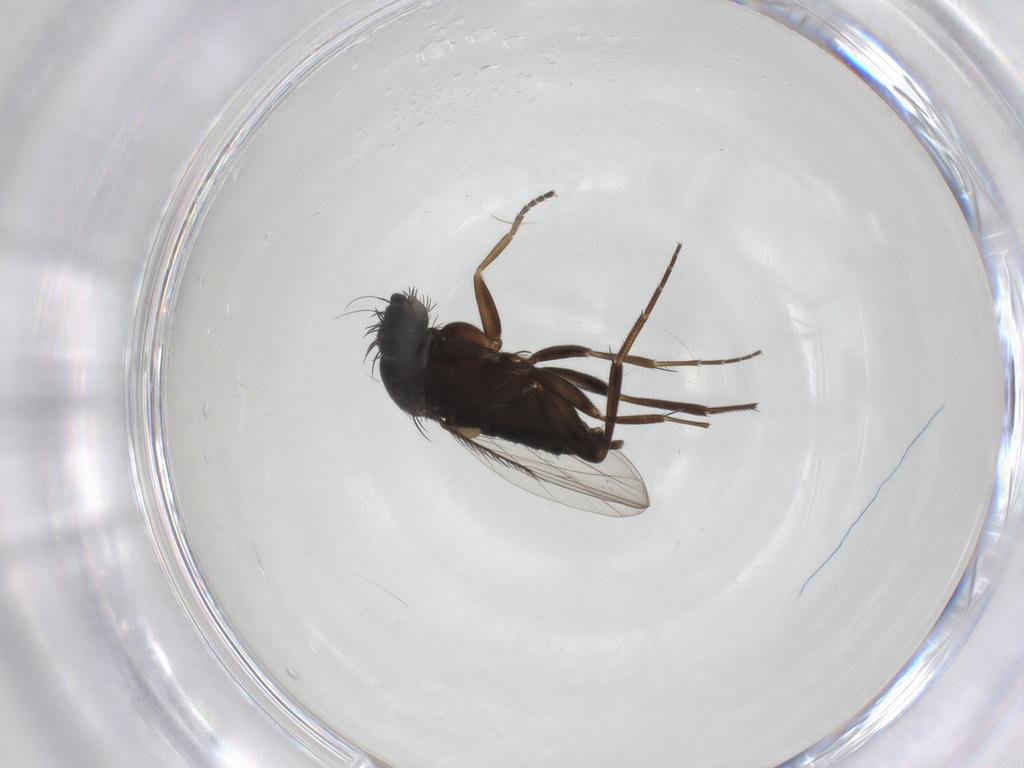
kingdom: Animalia
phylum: Arthropoda
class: Insecta
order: Diptera
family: Phoridae
